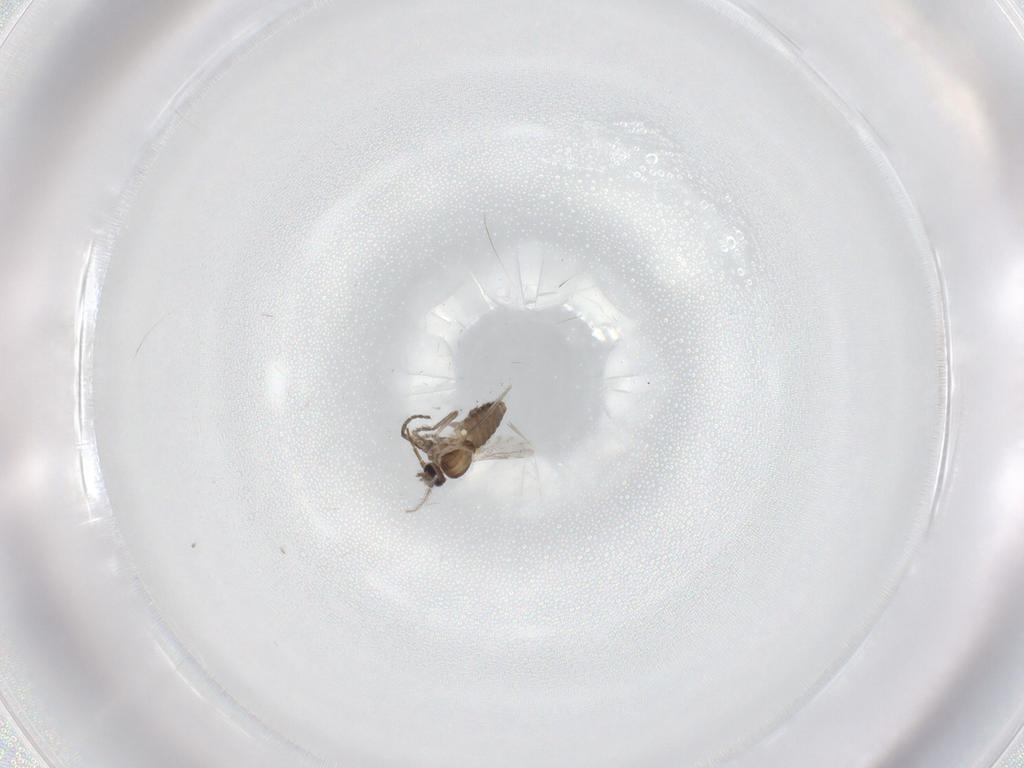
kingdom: Animalia
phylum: Arthropoda
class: Insecta
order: Diptera
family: Ceratopogonidae
